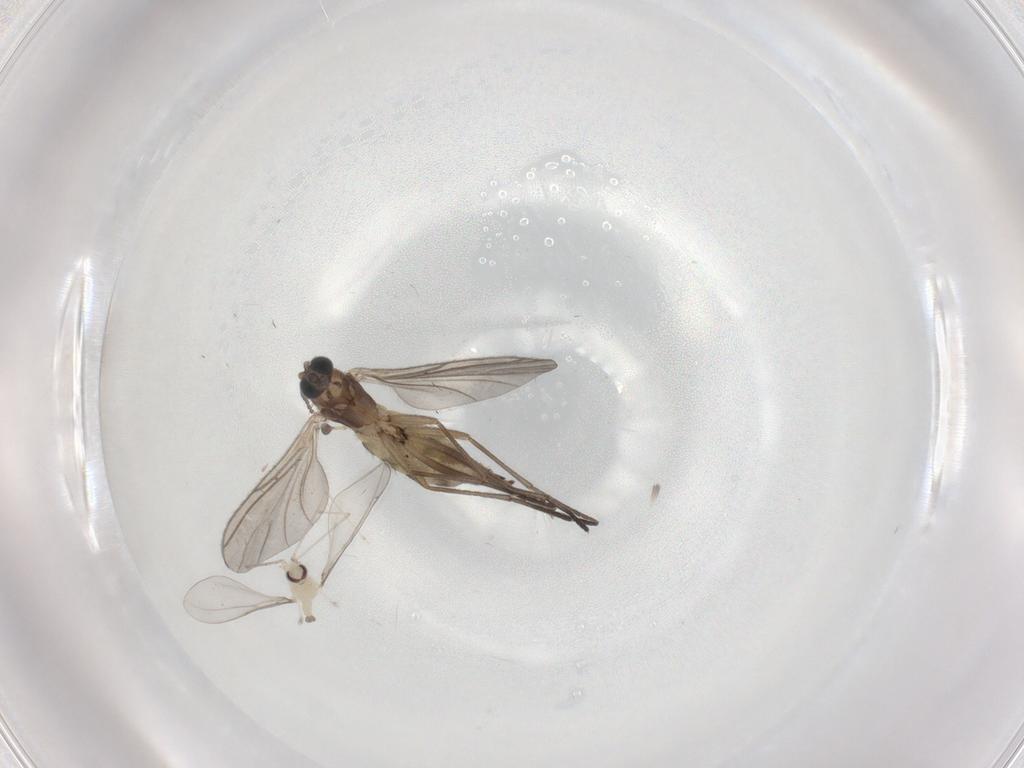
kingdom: Animalia
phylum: Arthropoda
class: Insecta
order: Diptera
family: Cecidomyiidae
